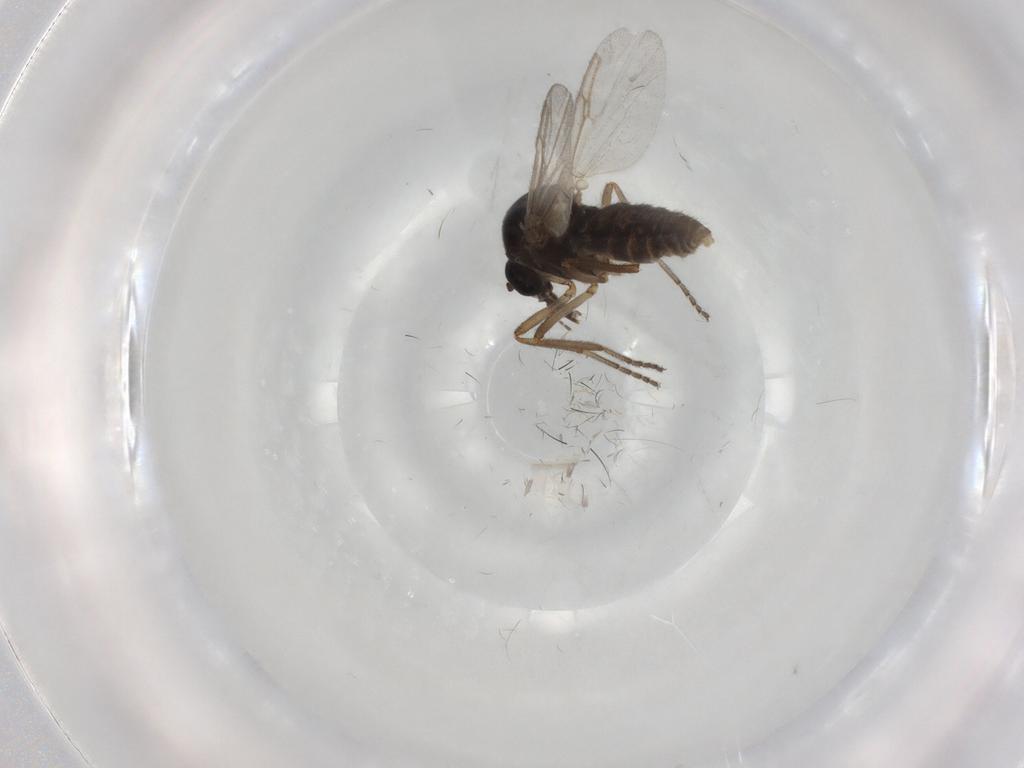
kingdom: Animalia
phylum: Arthropoda
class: Insecta
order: Diptera
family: Ceratopogonidae
